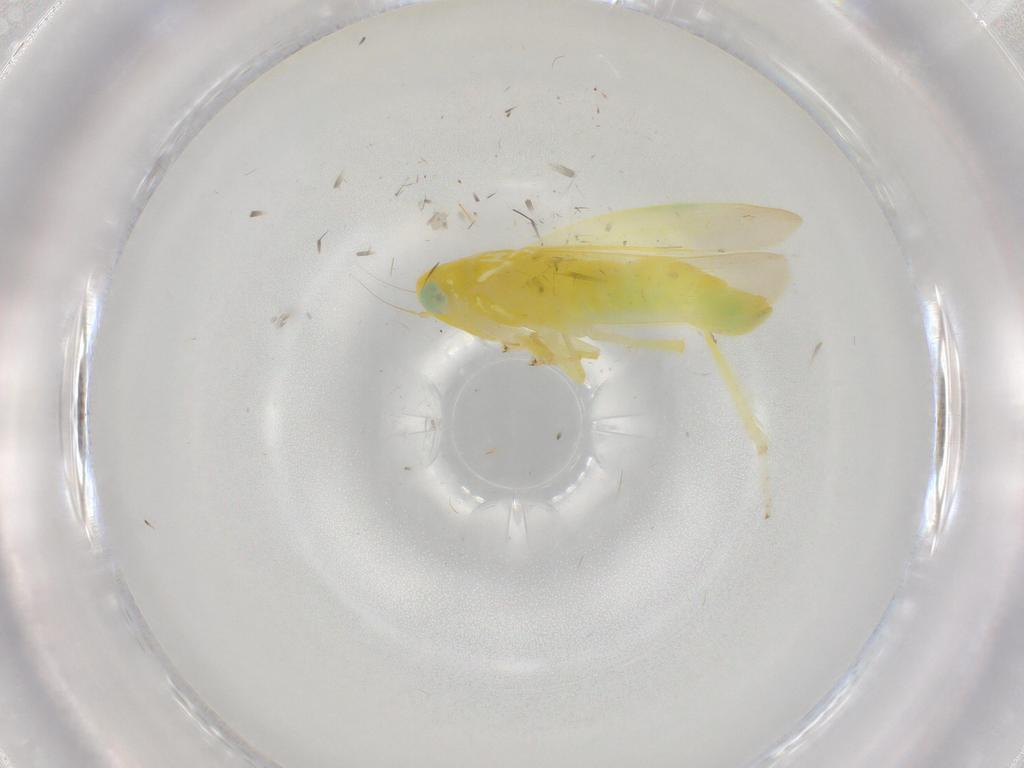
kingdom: Animalia
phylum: Arthropoda
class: Insecta
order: Hemiptera
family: Cicadellidae
